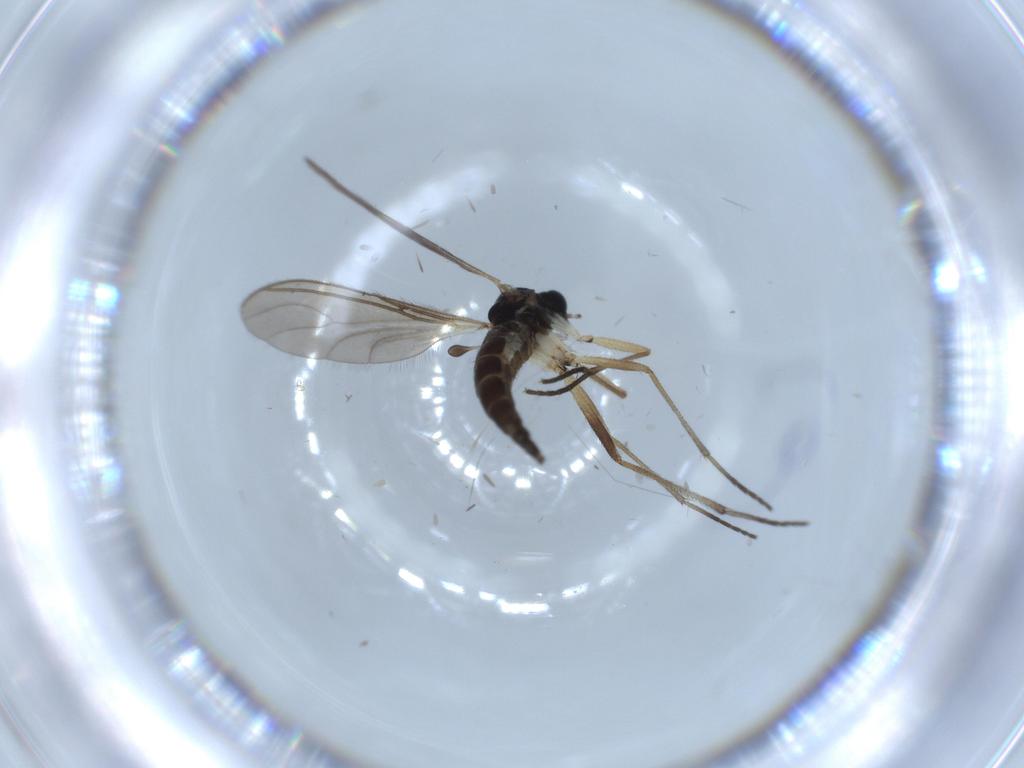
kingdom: Animalia
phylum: Arthropoda
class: Insecta
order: Diptera
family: Sciaridae
